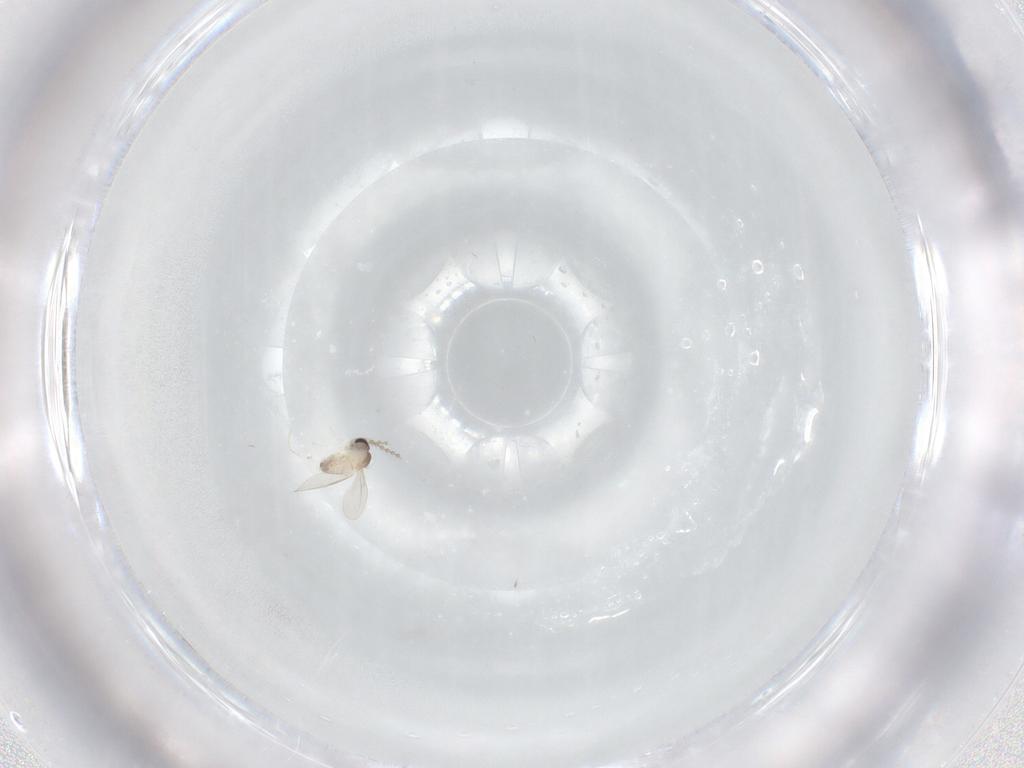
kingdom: Animalia
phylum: Arthropoda
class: Insecta
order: Diptera
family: Cecidomyiidae
